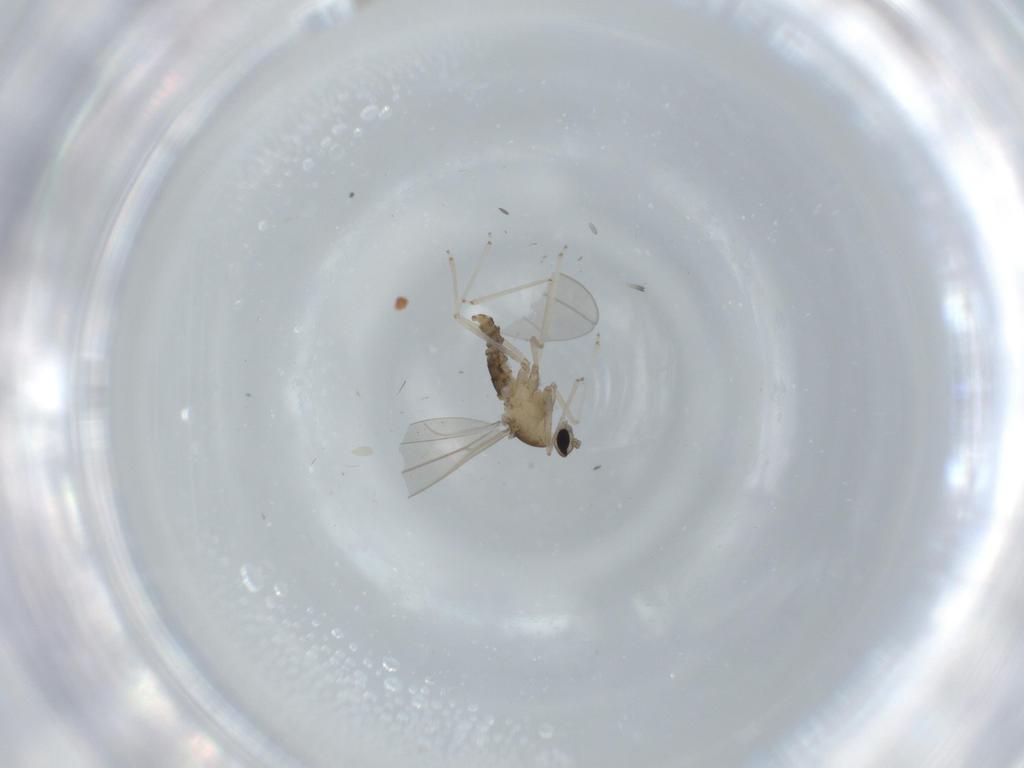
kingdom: Animalia
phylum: Arthropoda
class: Insecta
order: Diptera
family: Cecidomyiidae
